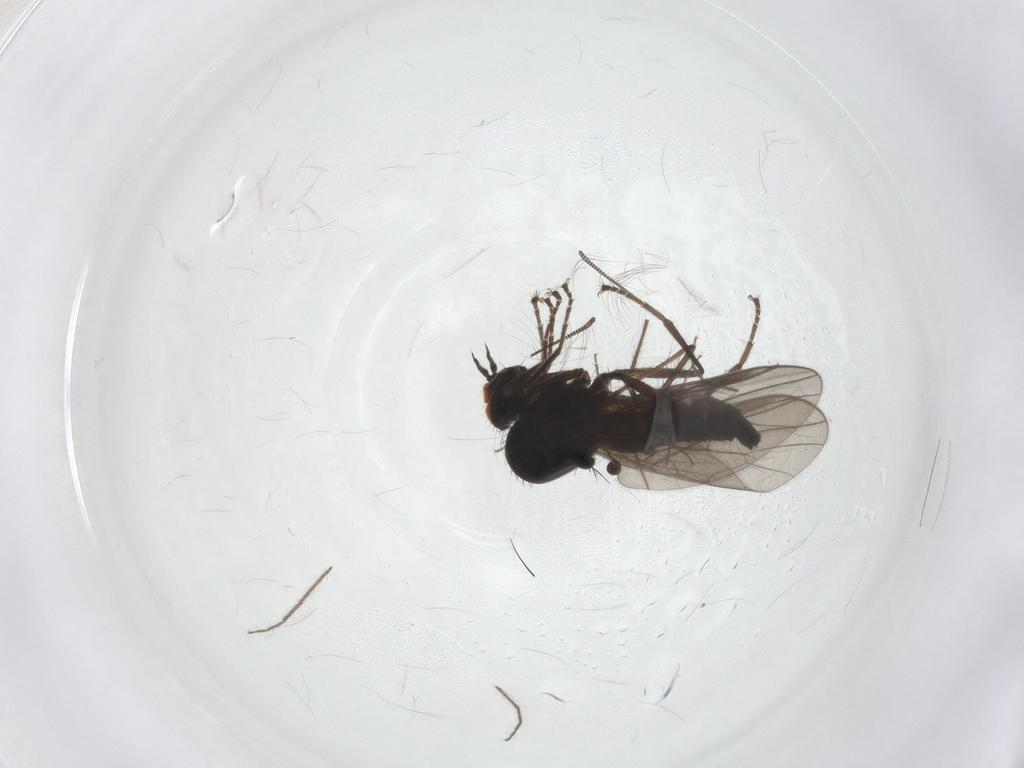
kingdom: Animalia
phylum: Arthropoda
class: Insecta
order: Diptera
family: Hybotidae
